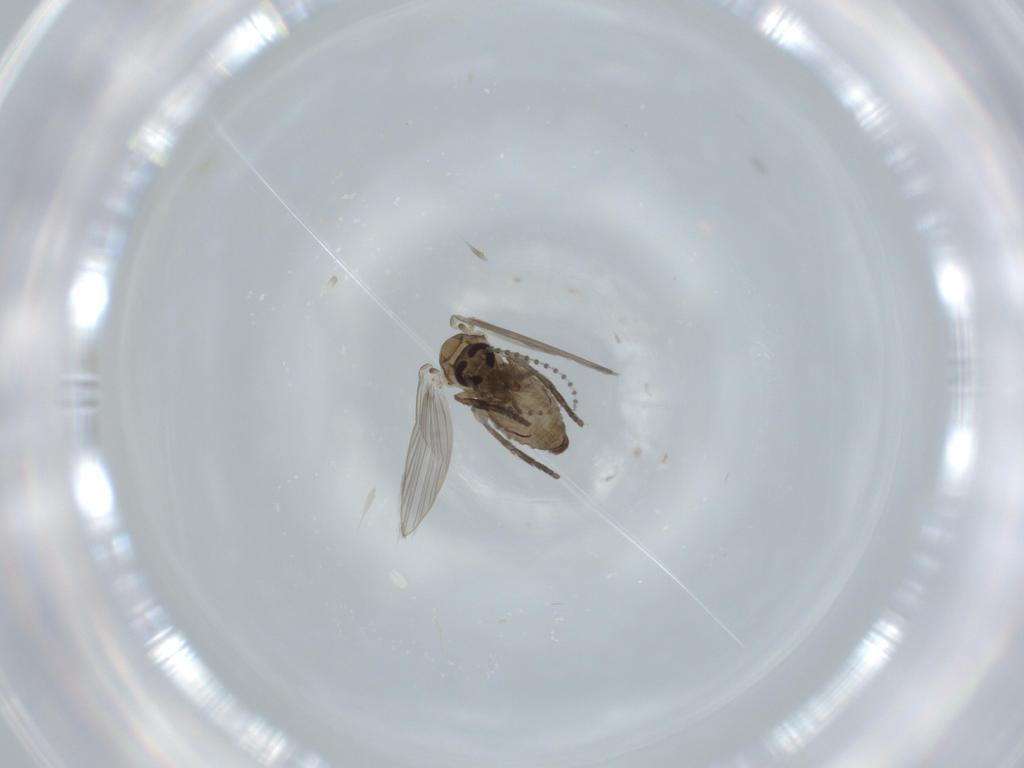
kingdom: Animalia
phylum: Arthropoda
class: Insecta
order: Diptera
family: Psychodidae
